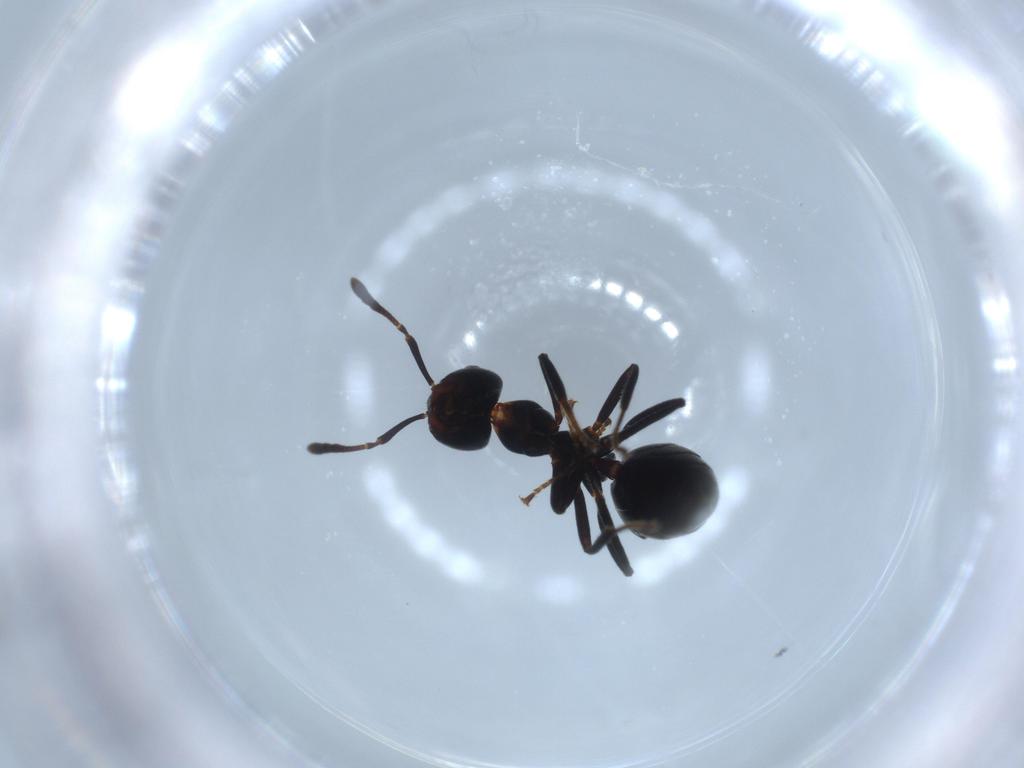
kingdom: Animalia
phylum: Arthropoda
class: Insecta
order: Hymenoptera
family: Formicidae
